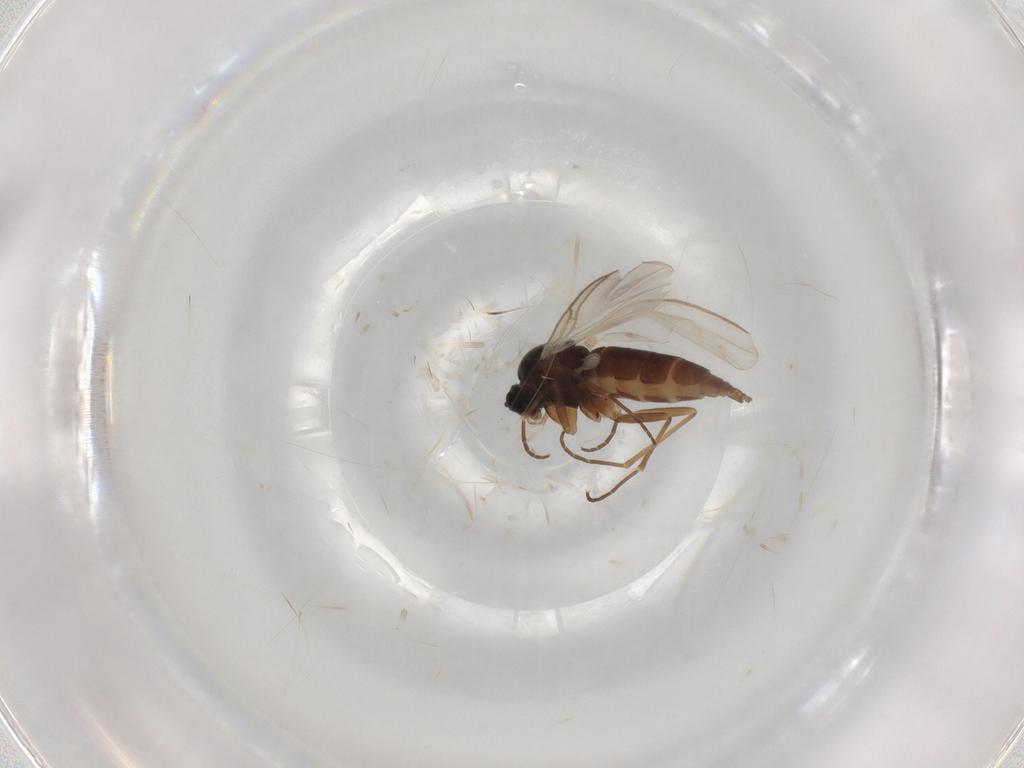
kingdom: Animalia
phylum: Arthropoda
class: Insecta
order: Diptera
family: Sciaridae
